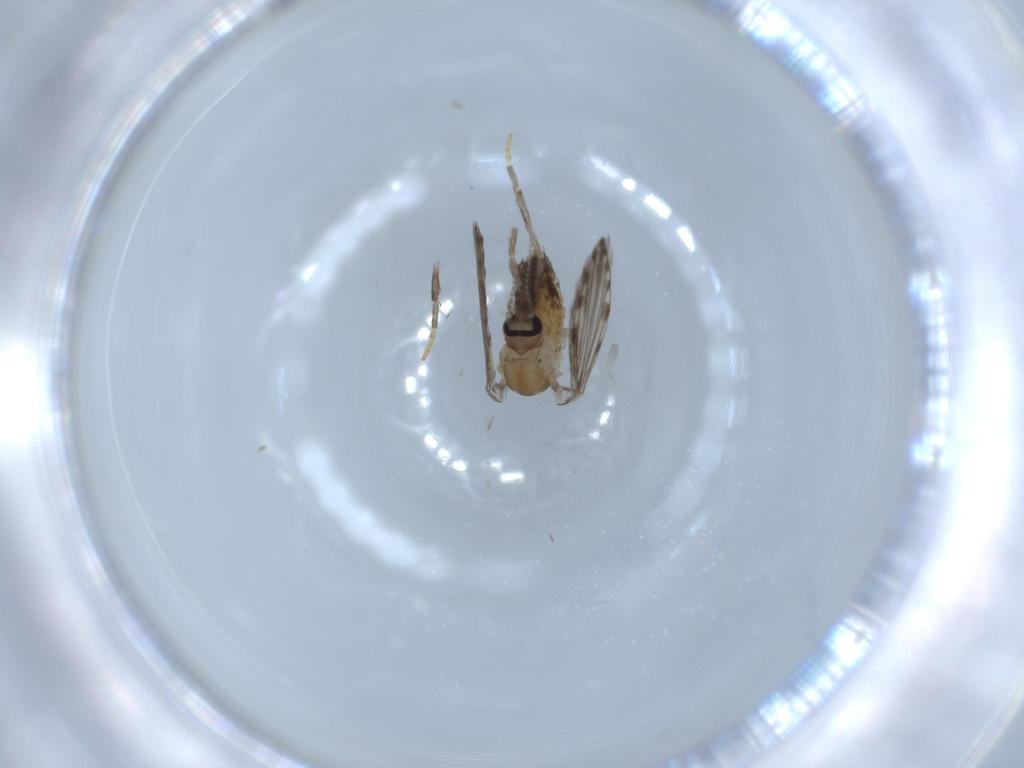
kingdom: Animalia
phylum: Arthropoda
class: Insecta
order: Diptera
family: Psychodidae
